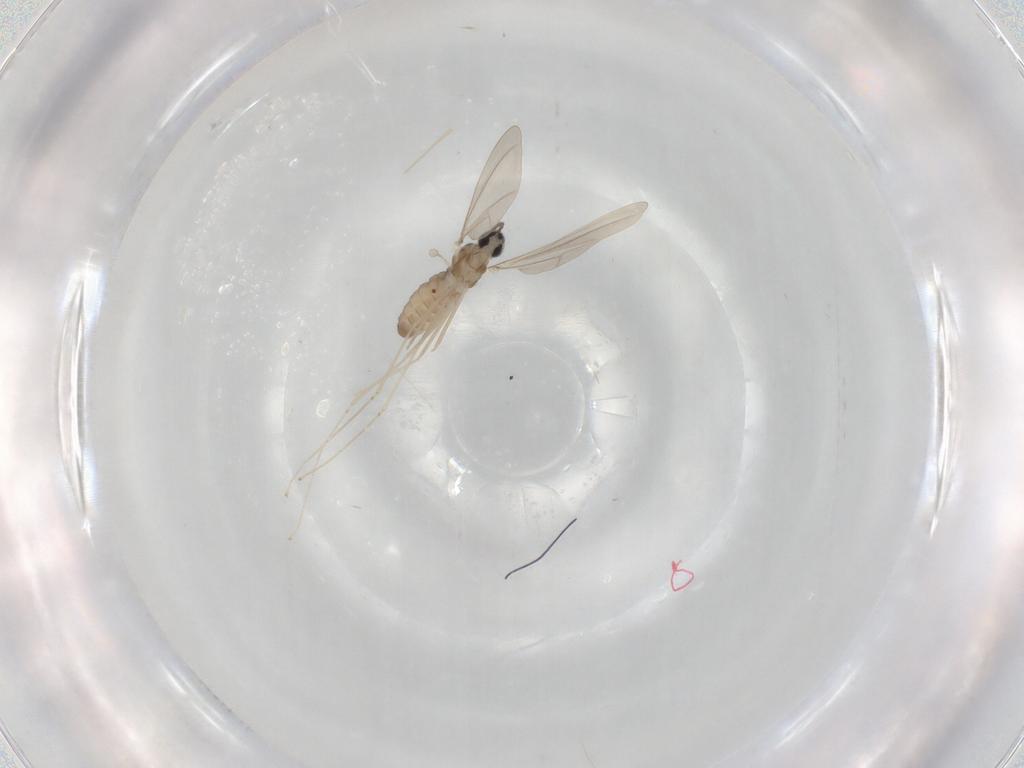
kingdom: Animalia
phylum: Arthropoda
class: Insecta
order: Diptera
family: Cecidomyiidae
